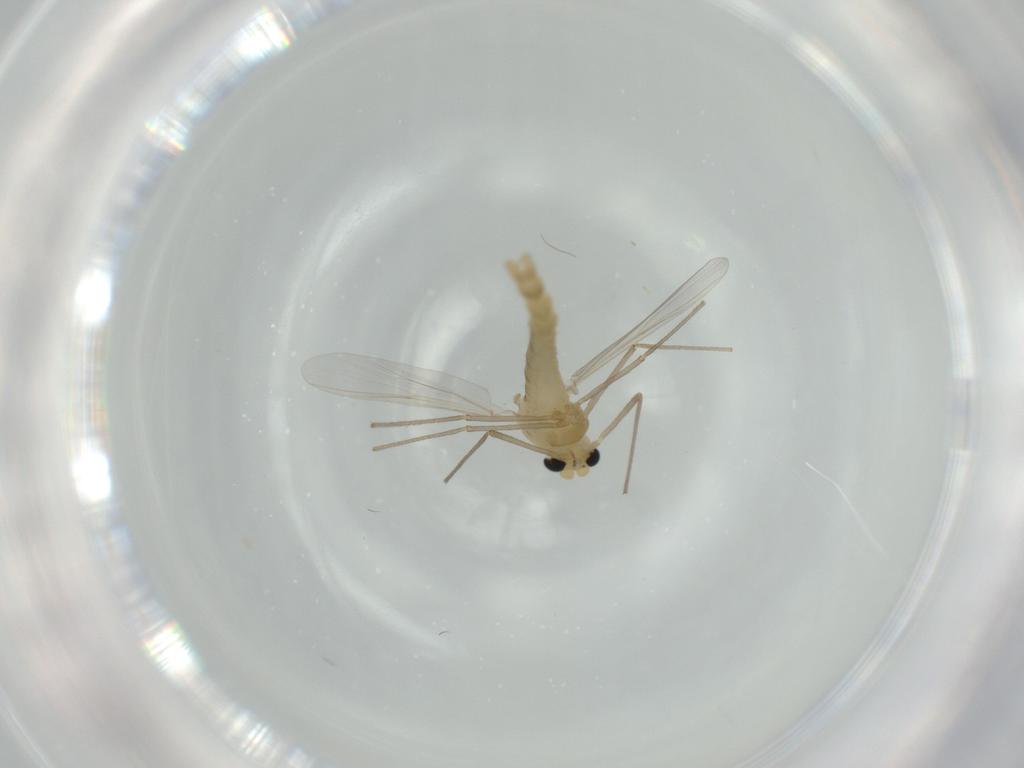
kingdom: Animalia
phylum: Arthropoda
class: Insecta
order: Diptera
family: Chironomidae
